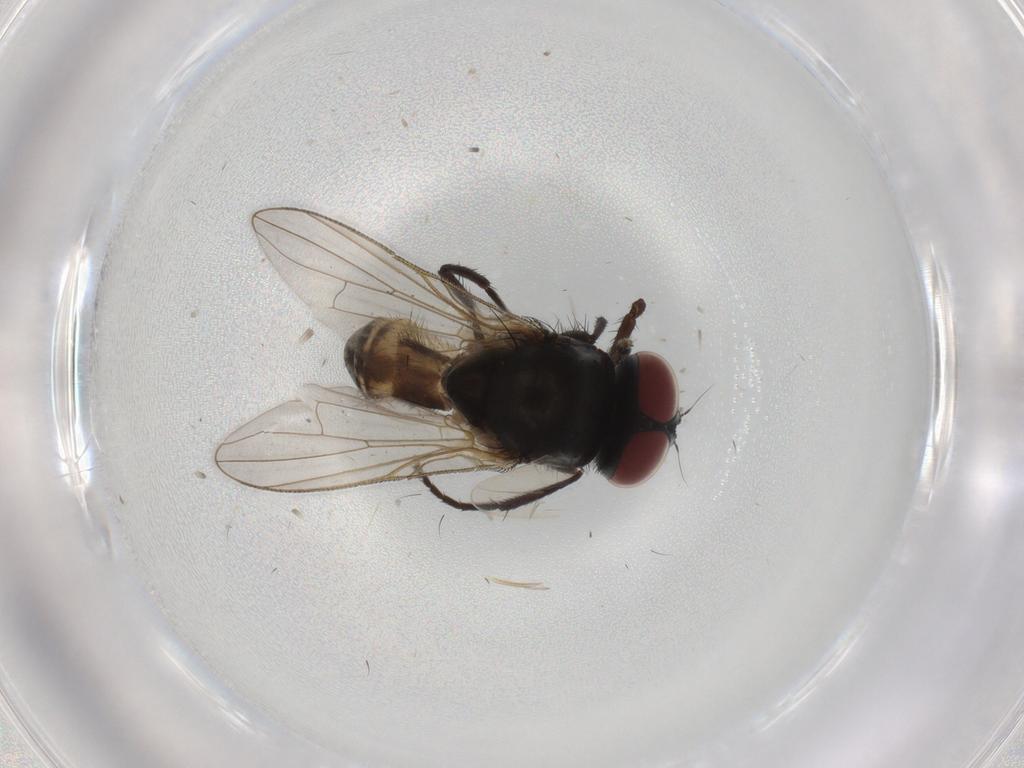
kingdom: Animalia
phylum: Arthropoda
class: Insecta
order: Diptera
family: Muscidae
